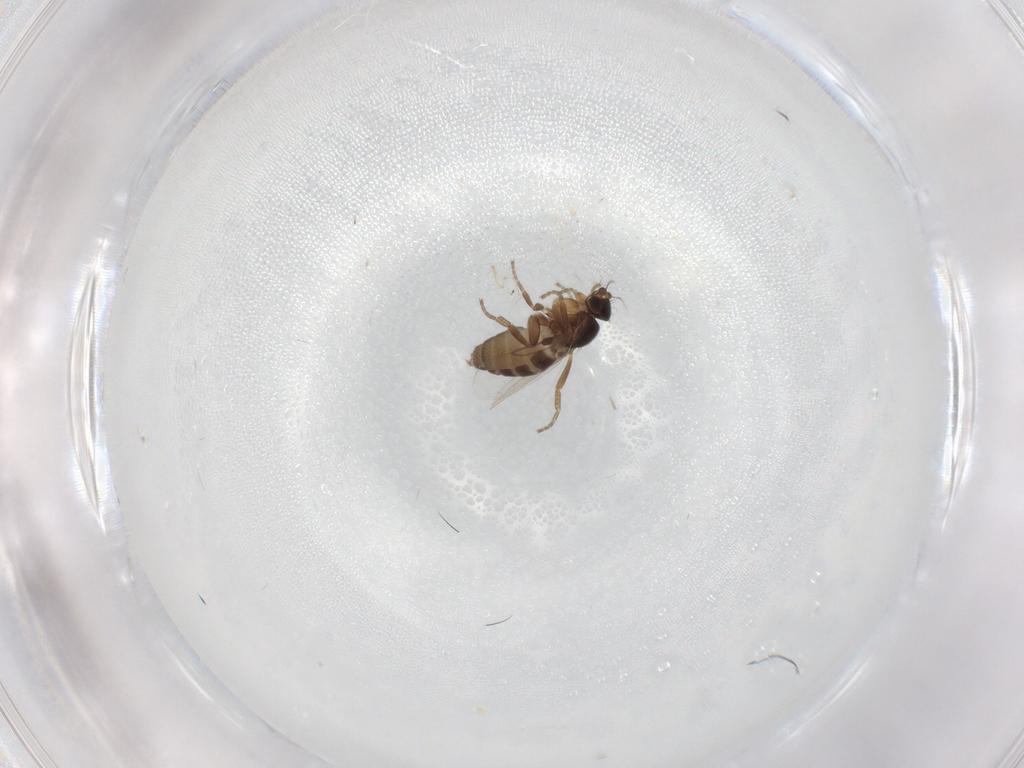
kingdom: Animalia
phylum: Arthropoda
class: Insecta
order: Diptera
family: Phoridae
